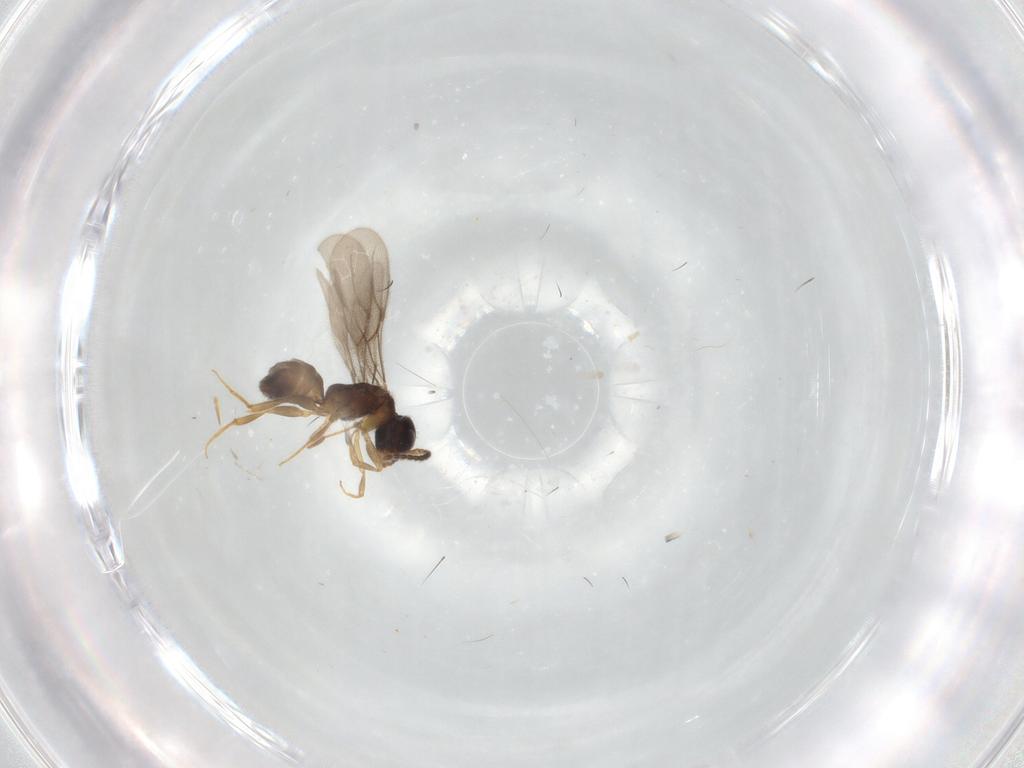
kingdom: Animalia
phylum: Arthropoda
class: Insecta
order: Hymenoptera
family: Bethylidae
